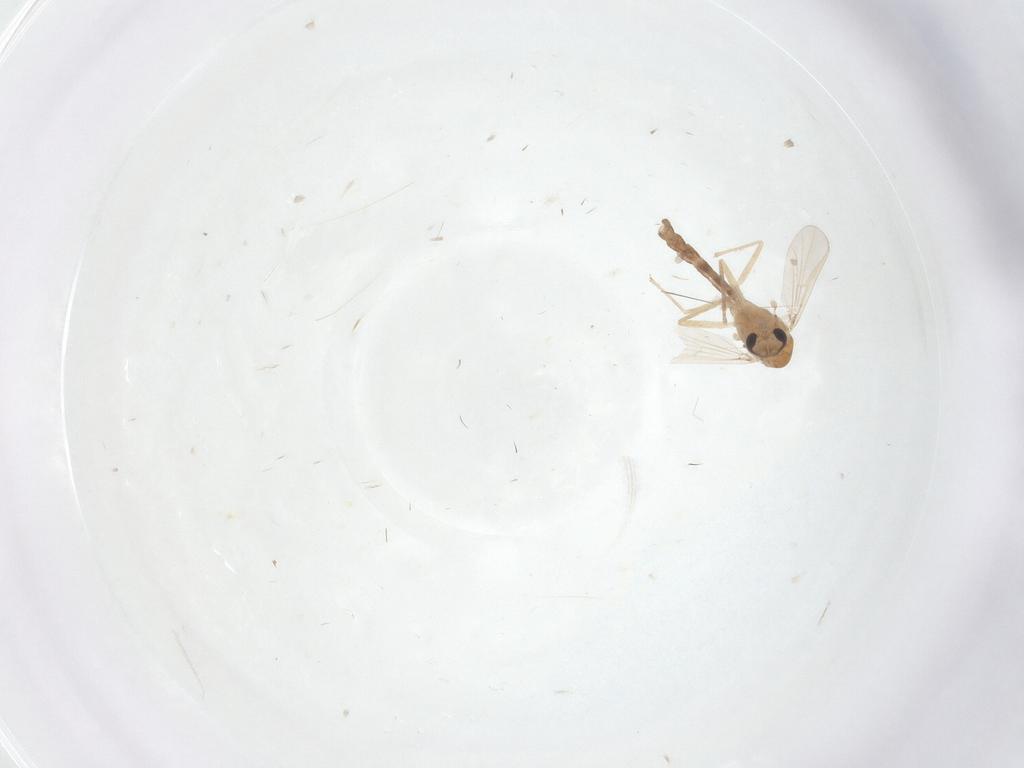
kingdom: Animalia
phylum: Arthropoda
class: Insecta
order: Diptera
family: Chironomidae
